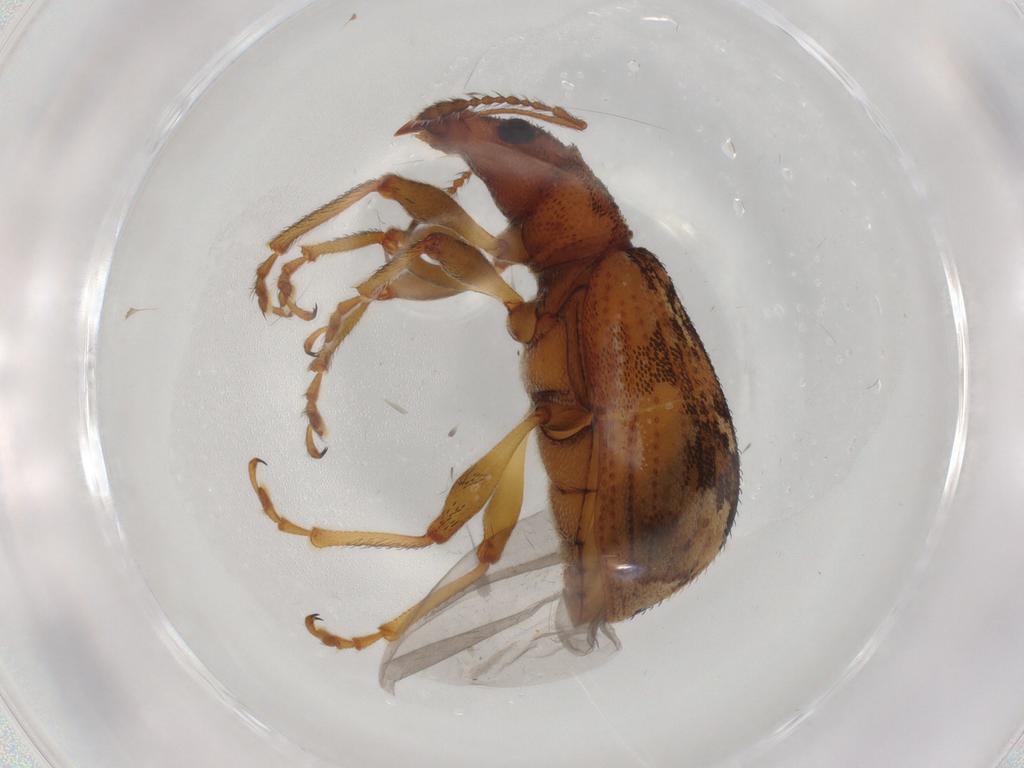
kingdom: Animalia
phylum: Arthropoda
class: Insecta
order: Coleoptera
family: Curculionidae
